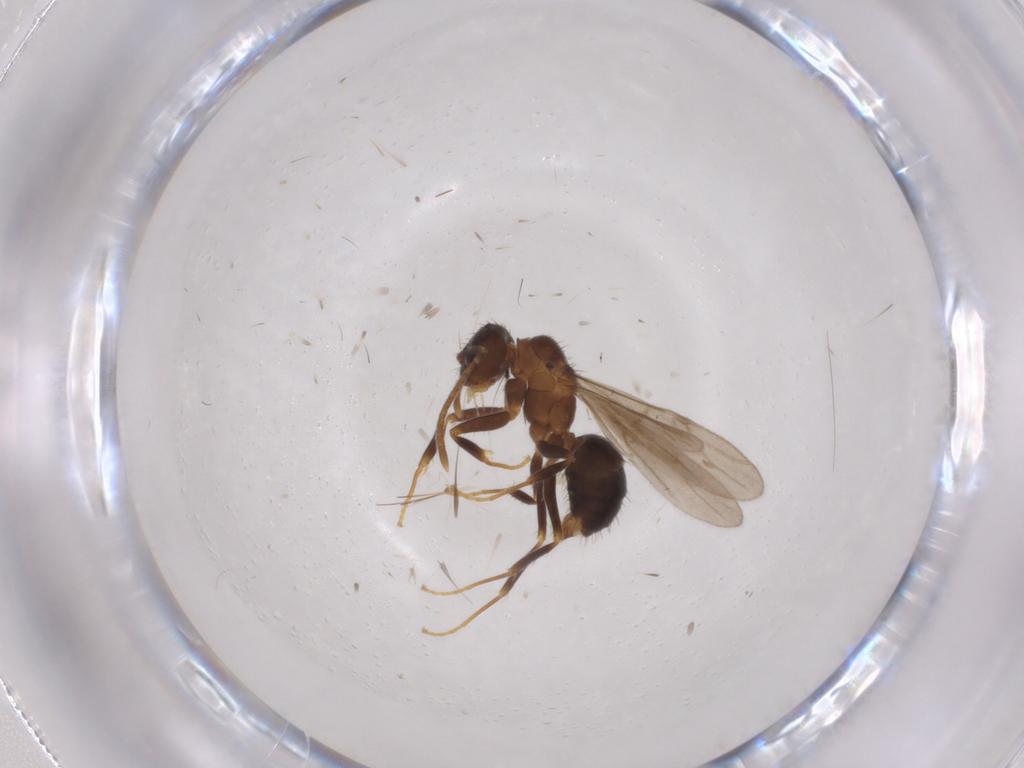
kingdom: Animalia
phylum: Arthropoda
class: Insecta
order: Hymenoptera
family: Formicidae
